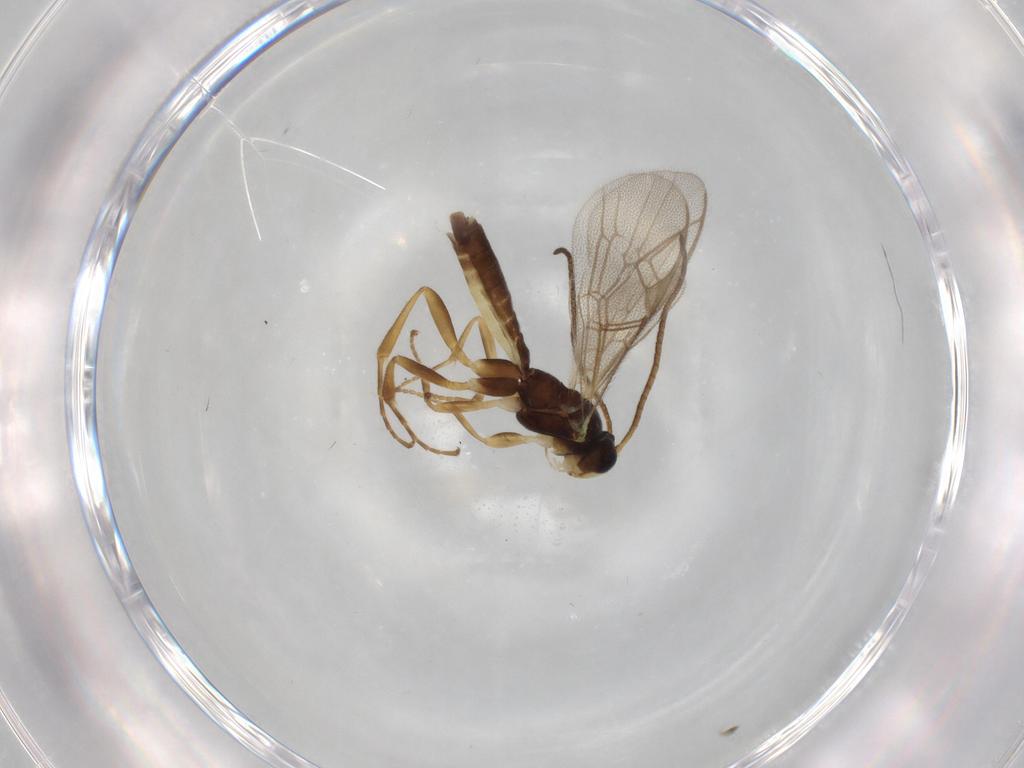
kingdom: Animalia
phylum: Arthropoda
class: Insecta
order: Hymenoptera
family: Ichneumonidae
